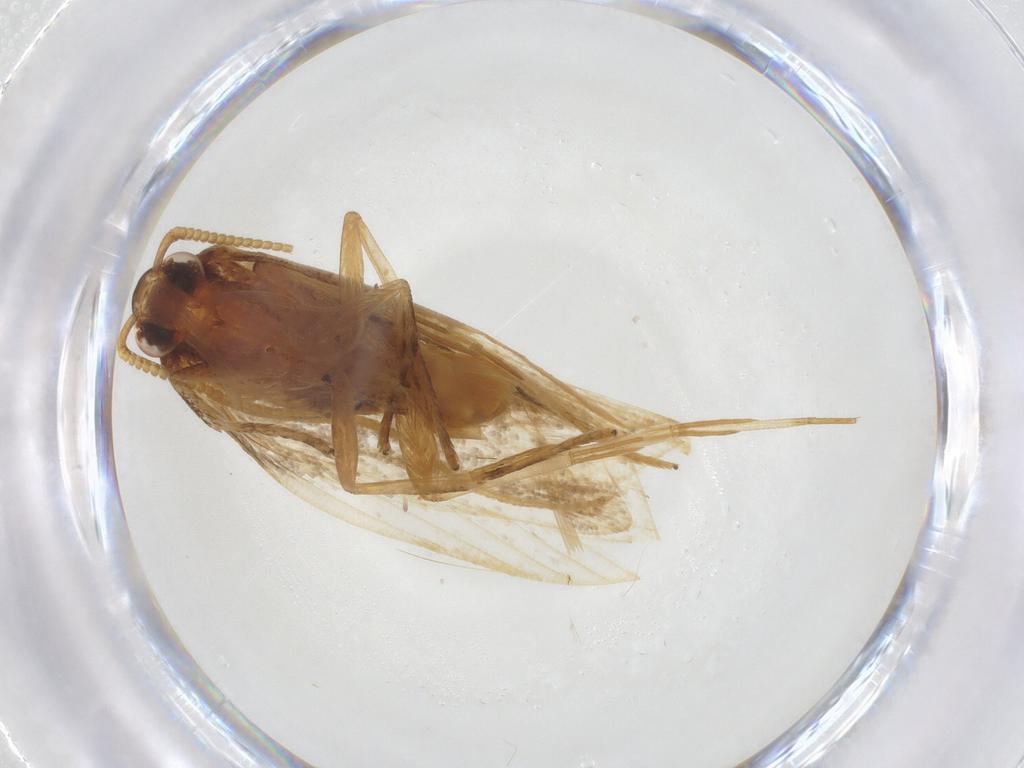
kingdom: Animalia
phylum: Arthropoda
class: Insecta
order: Lepidoptera
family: Lecithoceridae
